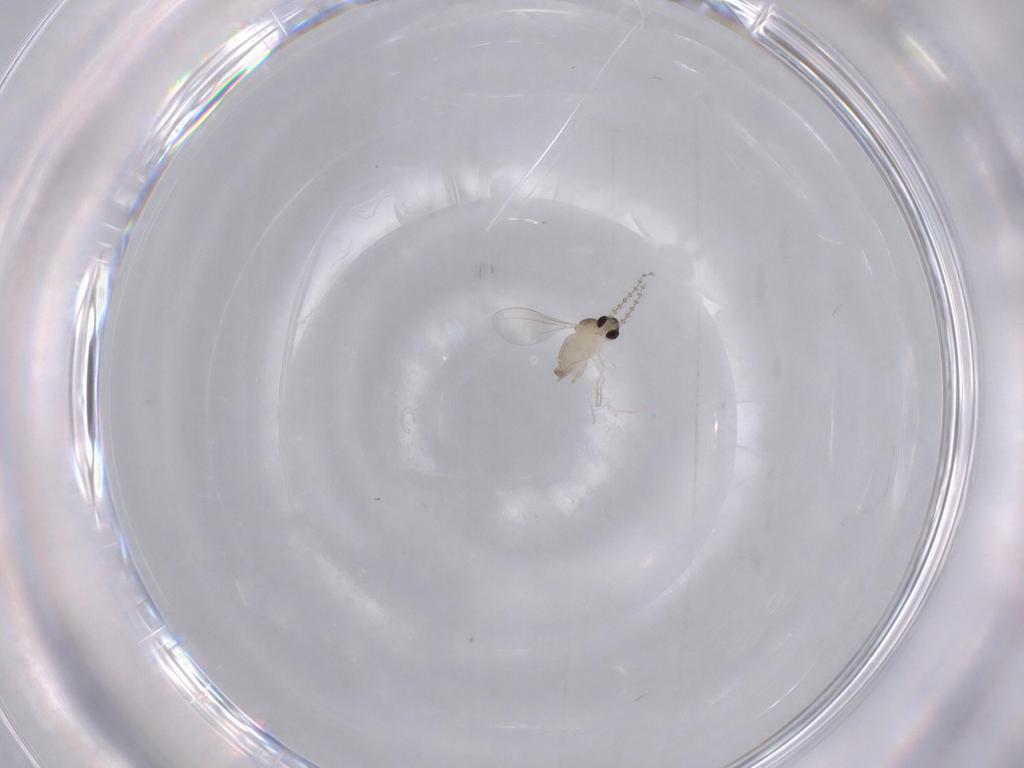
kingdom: Animalia
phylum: Arthropoda
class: Insecta
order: Diptera
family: Cecidomyiidae
